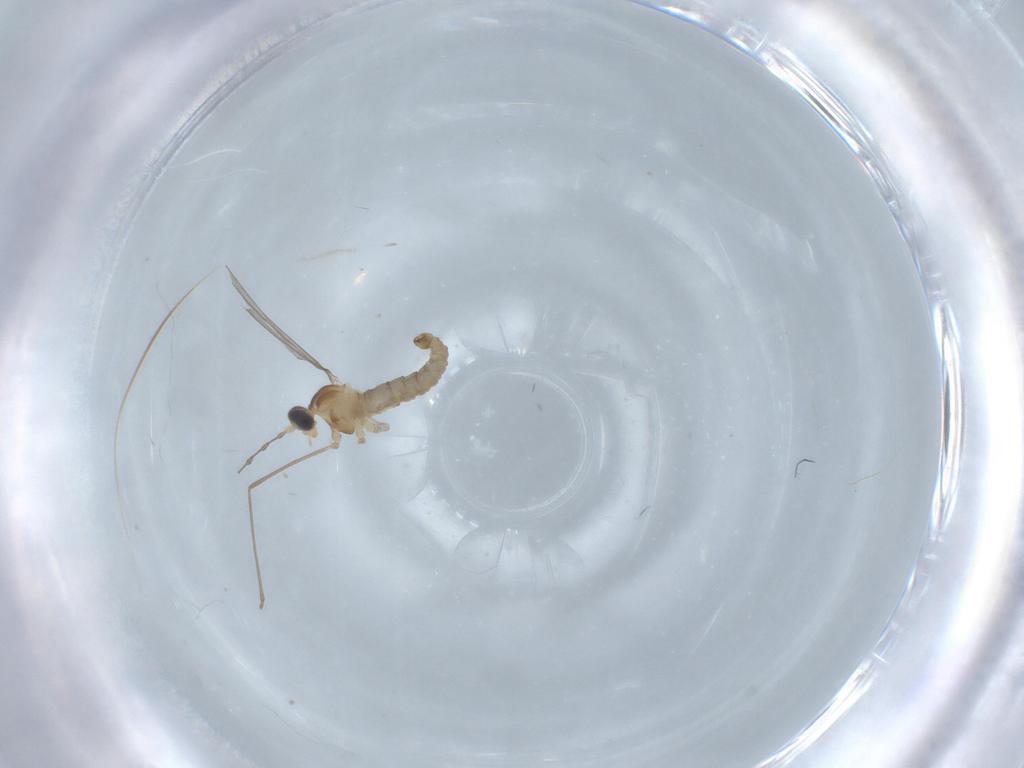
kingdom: Animalia
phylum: Arthropoda
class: Insecta
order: Diptera
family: Cecidomyiidae
